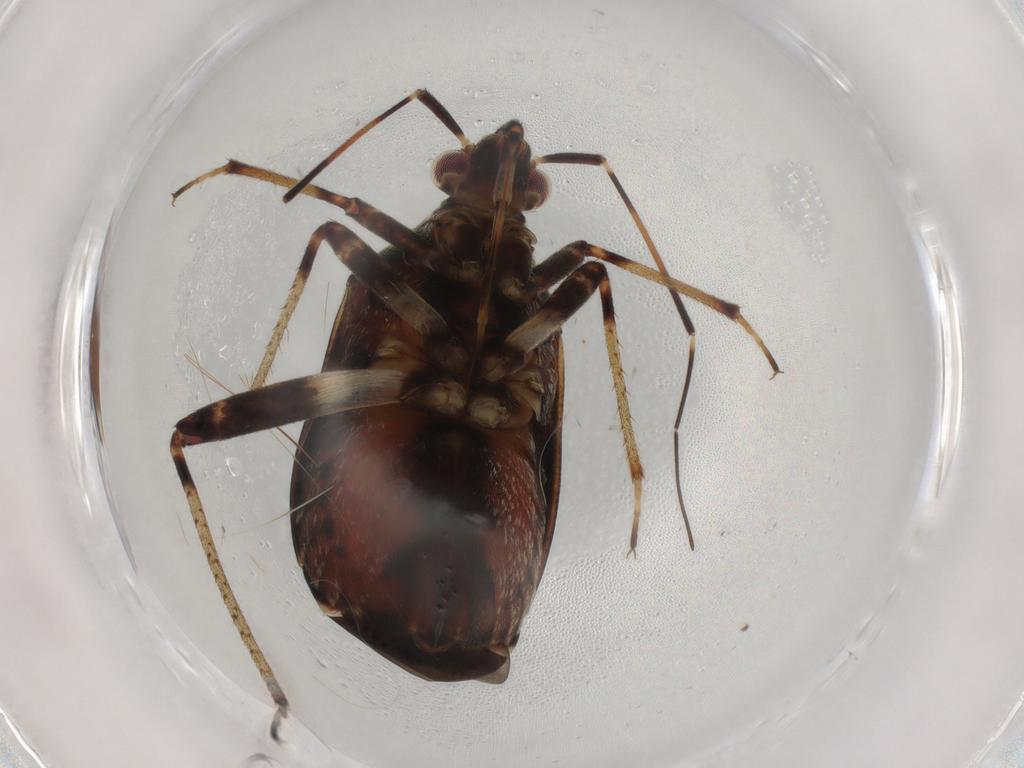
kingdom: Animalia
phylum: Arthropoda
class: Insecta
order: Hemiptera
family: Miridae
